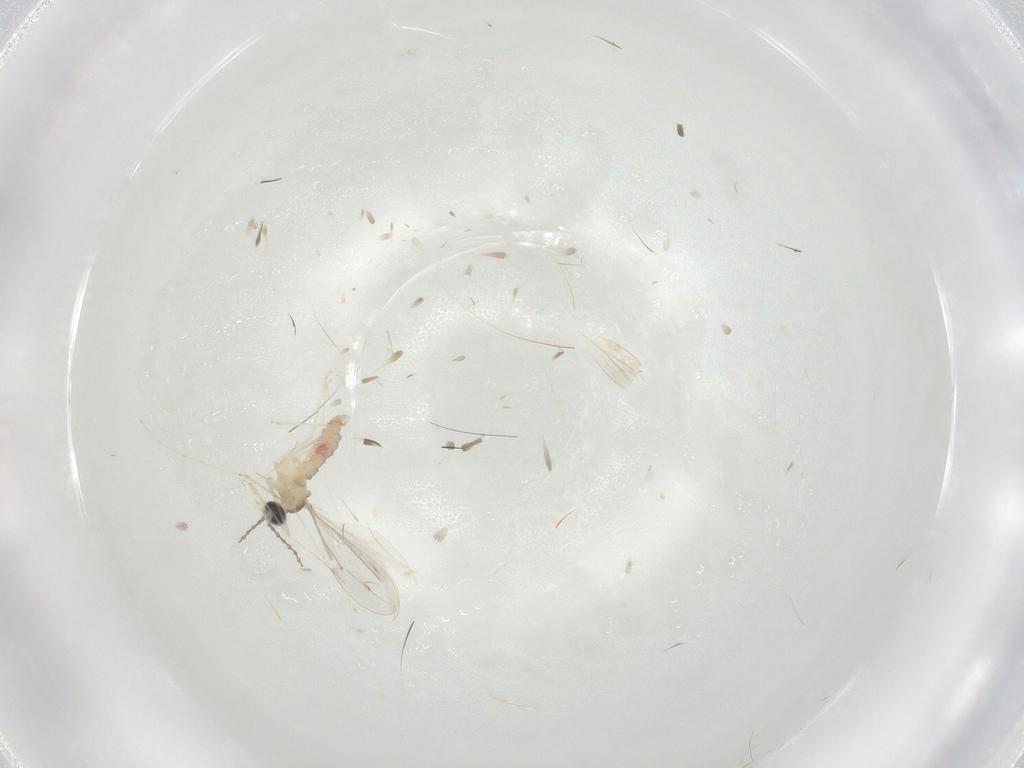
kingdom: Animalia
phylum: Arthropoda
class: Insecta
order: Diptera
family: Cecidomyiidae
